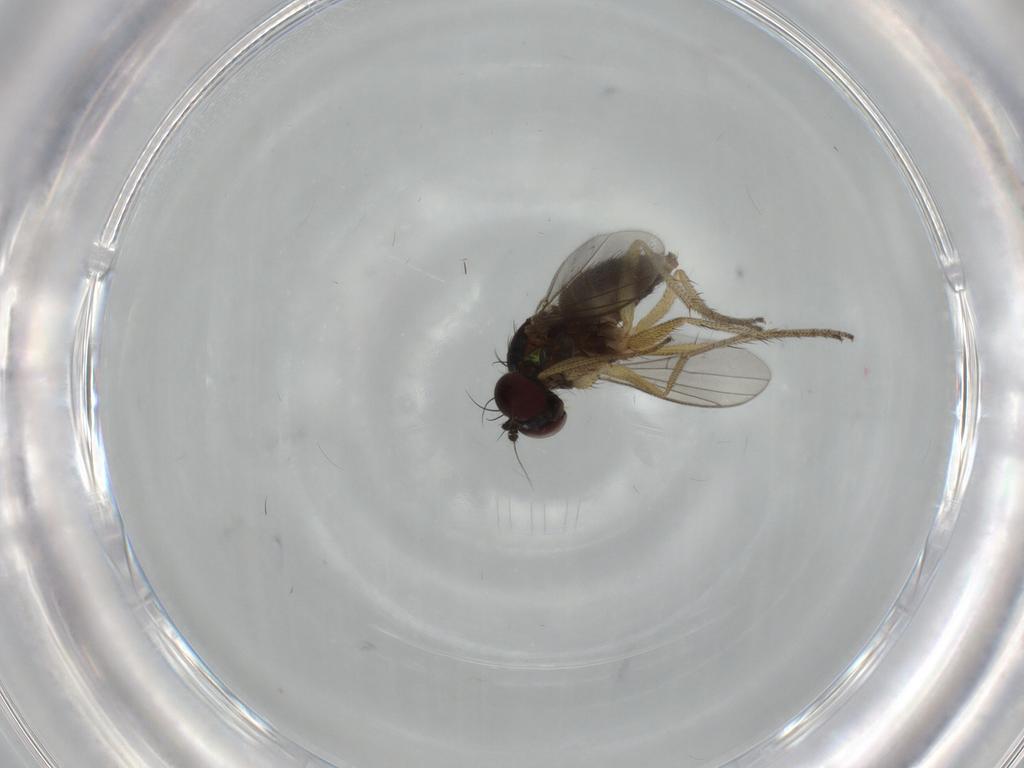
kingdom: Animalia
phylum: Arthropoda
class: Insecta
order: Diptera
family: Dolichopodidae
